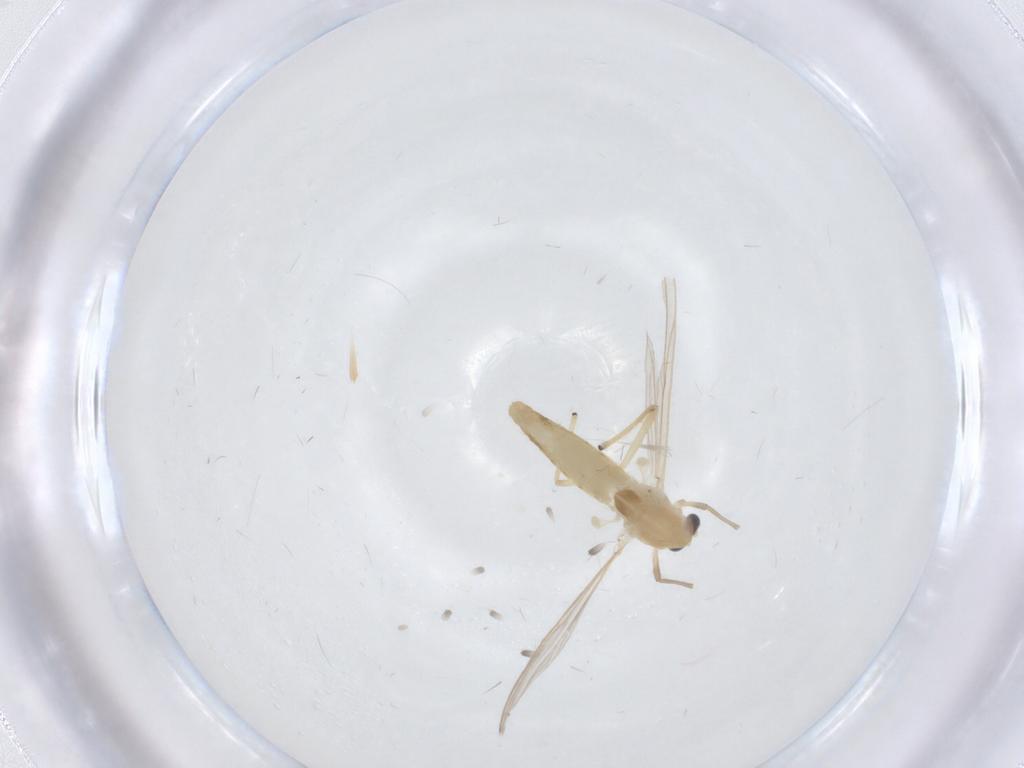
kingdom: Animalia
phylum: Arthropoda
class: Insecta
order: Diptera
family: Chironomidae
